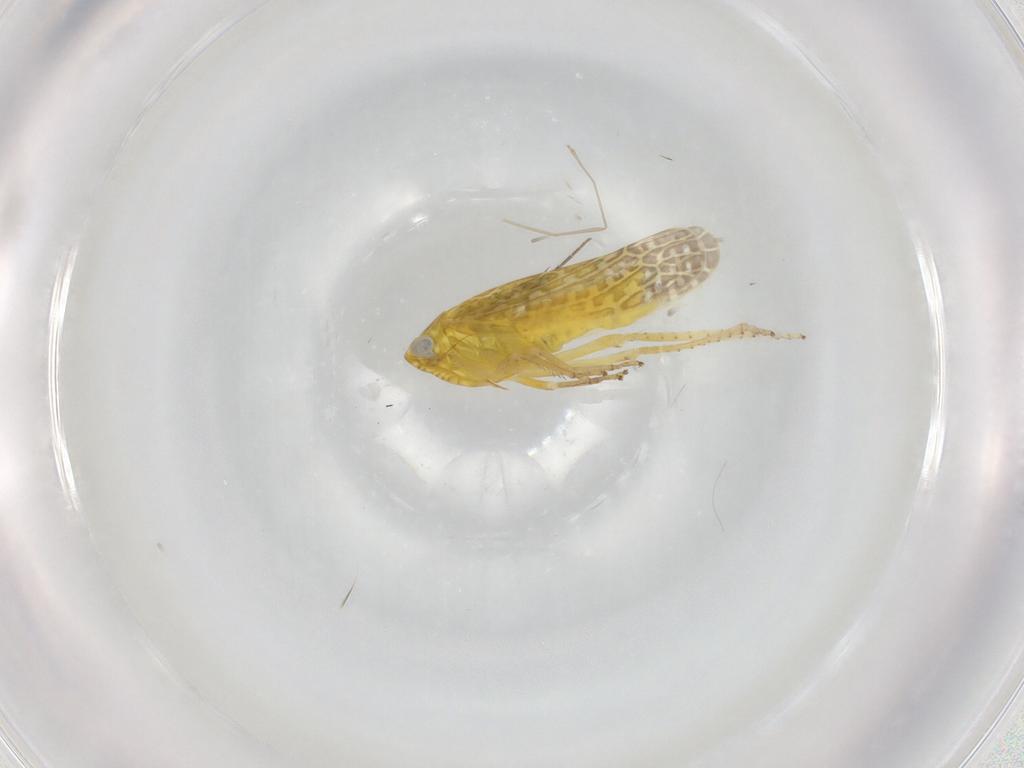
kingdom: Animalia
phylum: Arthropoda
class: Insecta
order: Hemiptera
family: Cicadellidae
